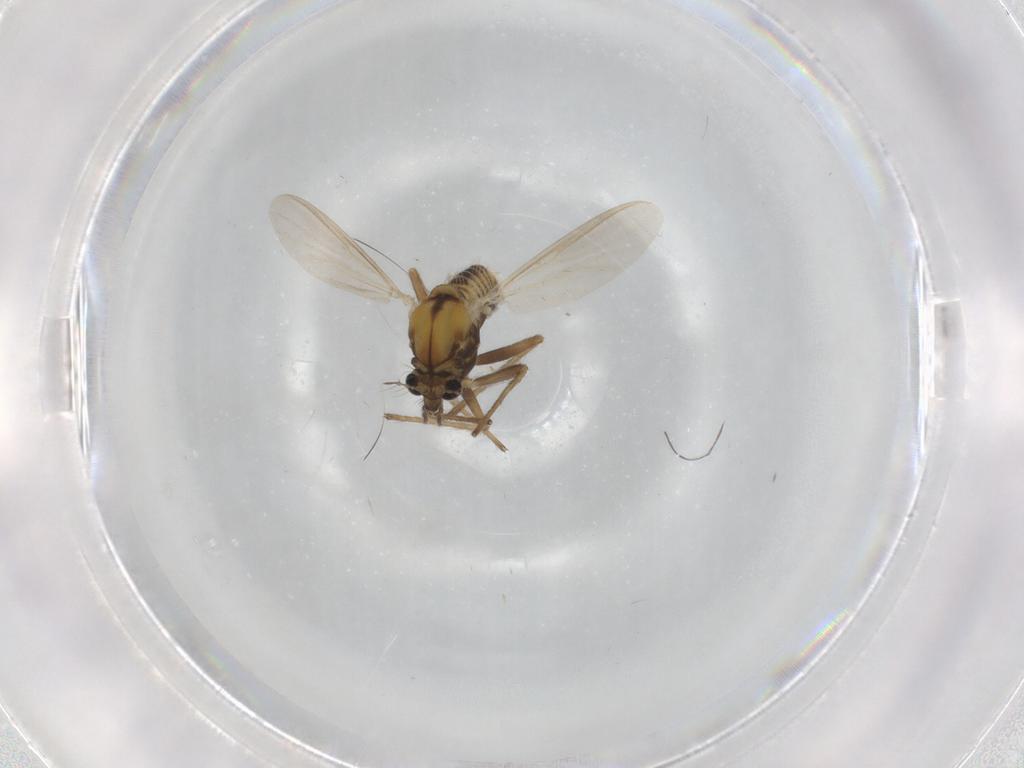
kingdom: Animalia
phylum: Arthropoda
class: Insecta
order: Diptera
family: Chironomidae
